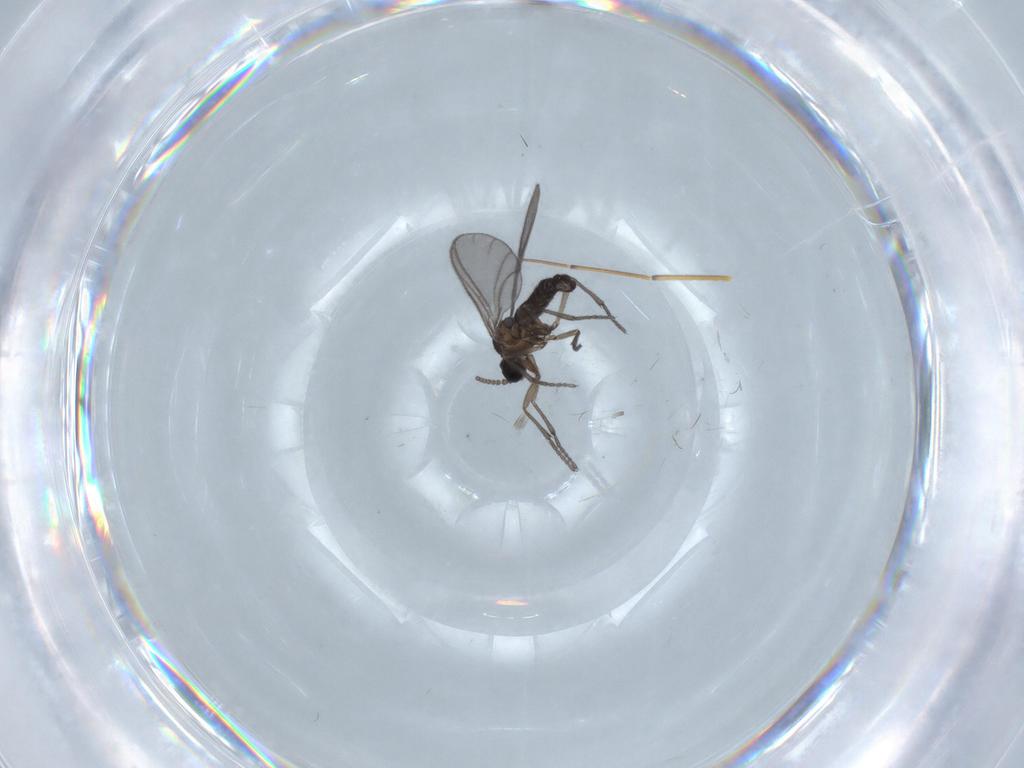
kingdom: Animalia
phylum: Arthropoda
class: Insecta
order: Diptera
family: Sciaridae
